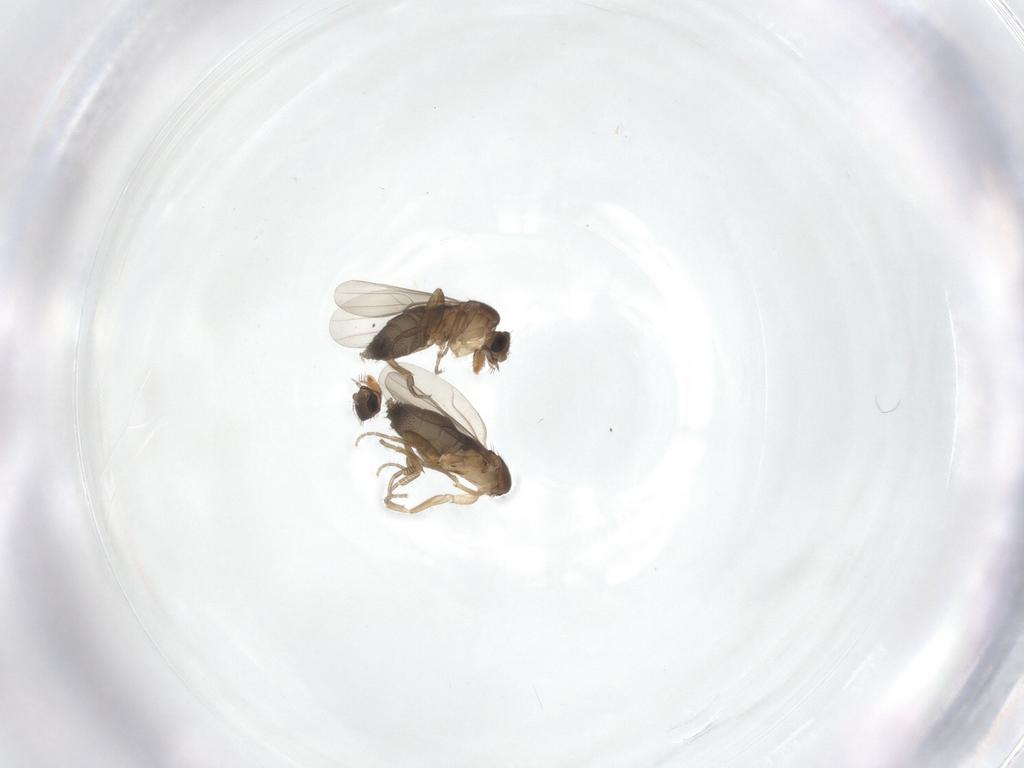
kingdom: Animalia
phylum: Arthropoda
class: Insecta
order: Diptera
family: Phoridae
